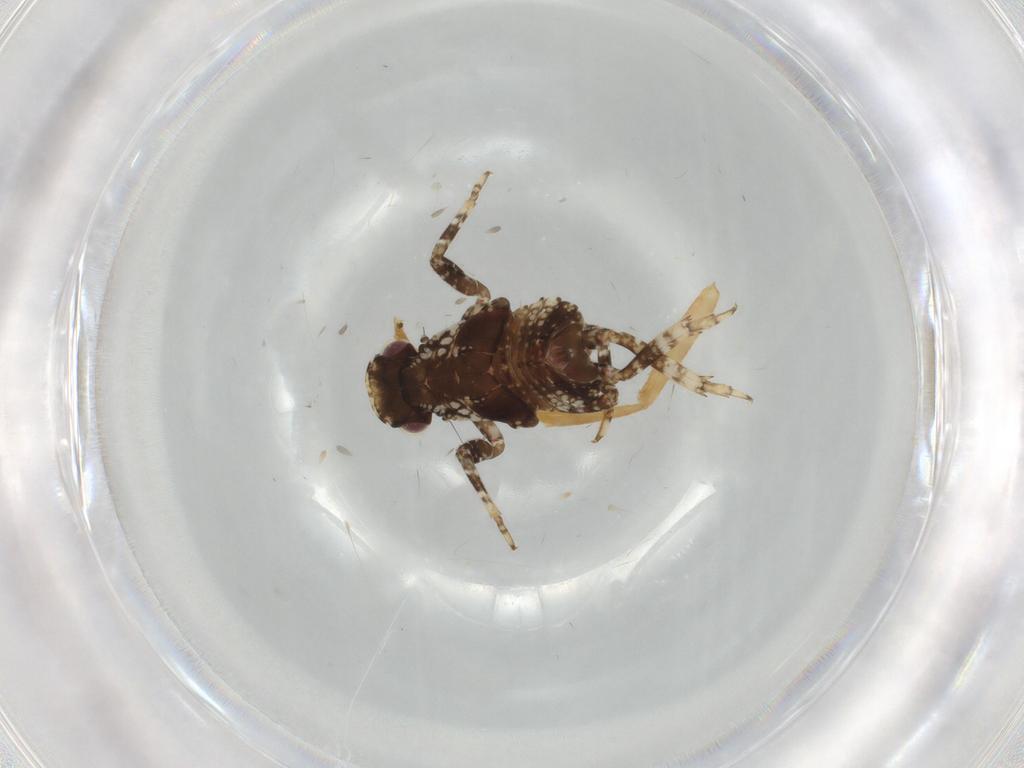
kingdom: Animalia
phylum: Arthropoda
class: Insecta
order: Hemiptera
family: Fulgoridae
